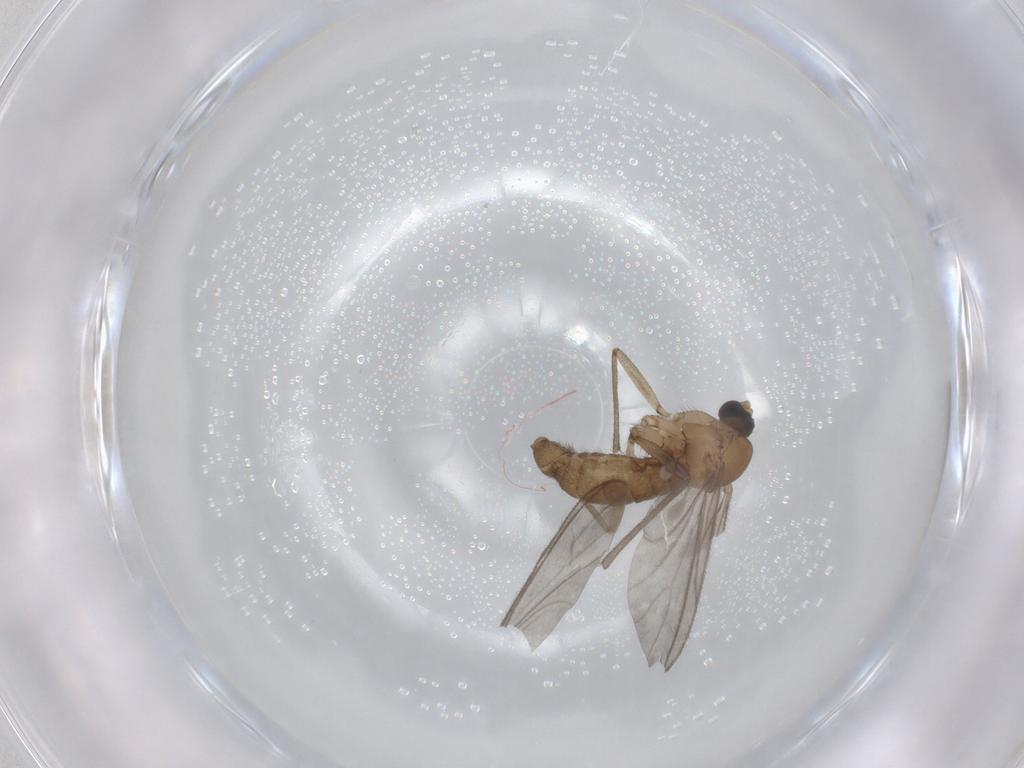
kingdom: Animalia
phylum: Arthropoda
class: Insecta
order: Diptera
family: Sciaridae
